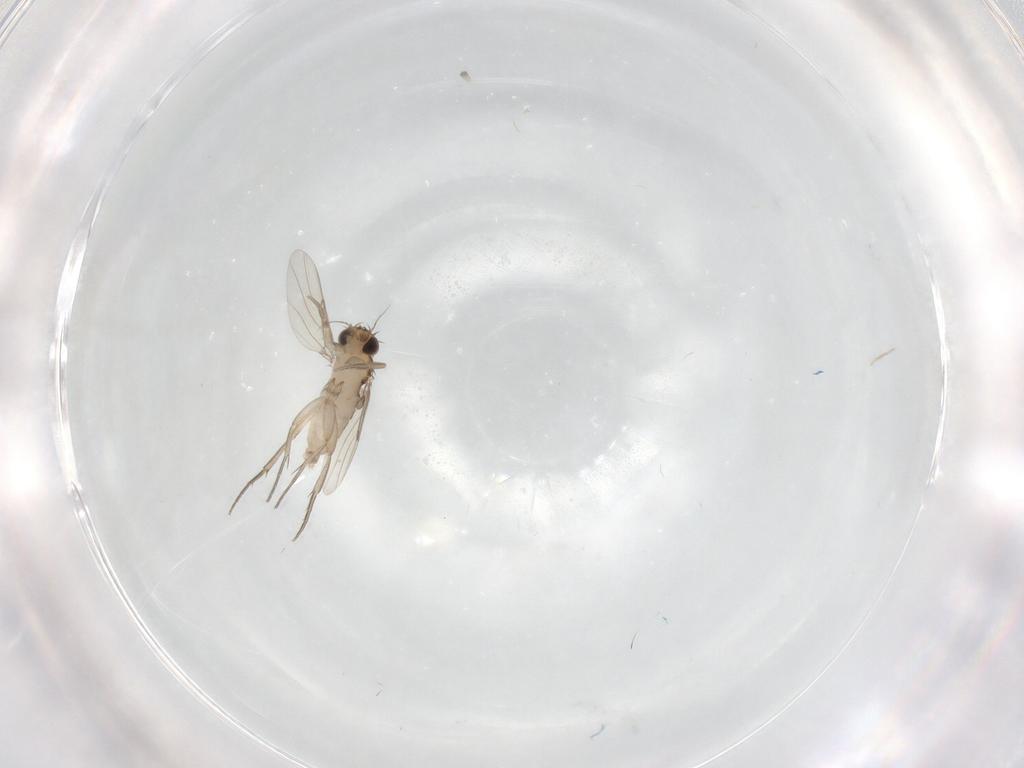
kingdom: Animalia
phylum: Arthropoda
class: Insecta
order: Diptera
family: Phoridae
